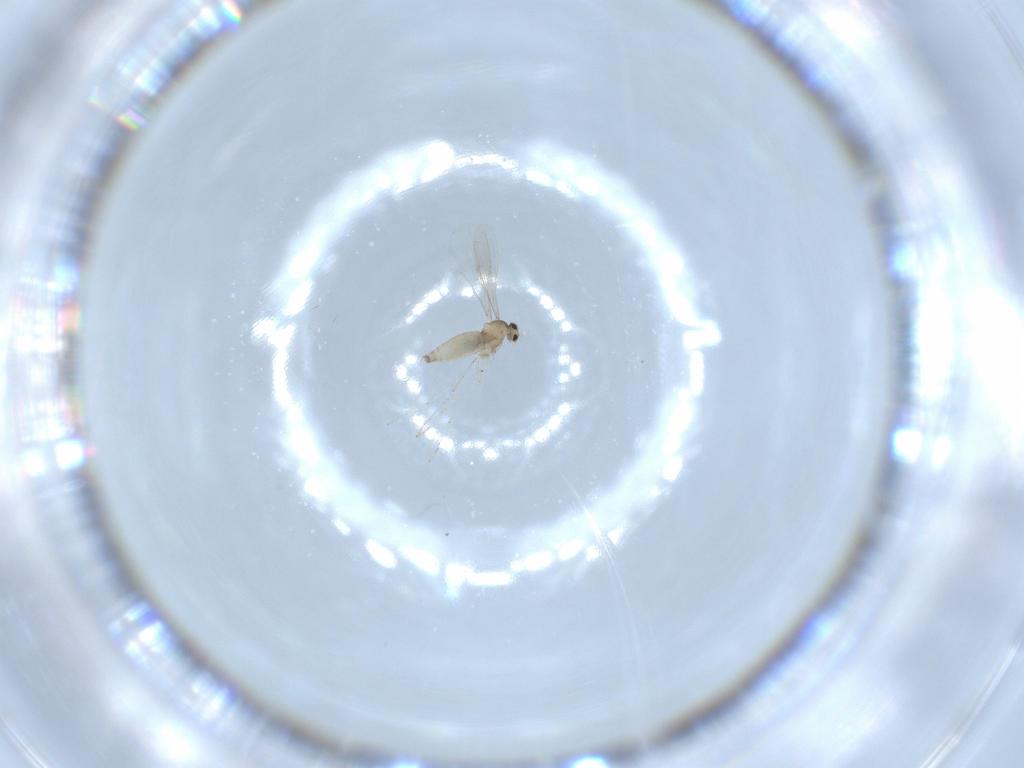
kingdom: Animalia
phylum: Arthropoda
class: Insecta
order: Diptera
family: Cecidomyiidae
